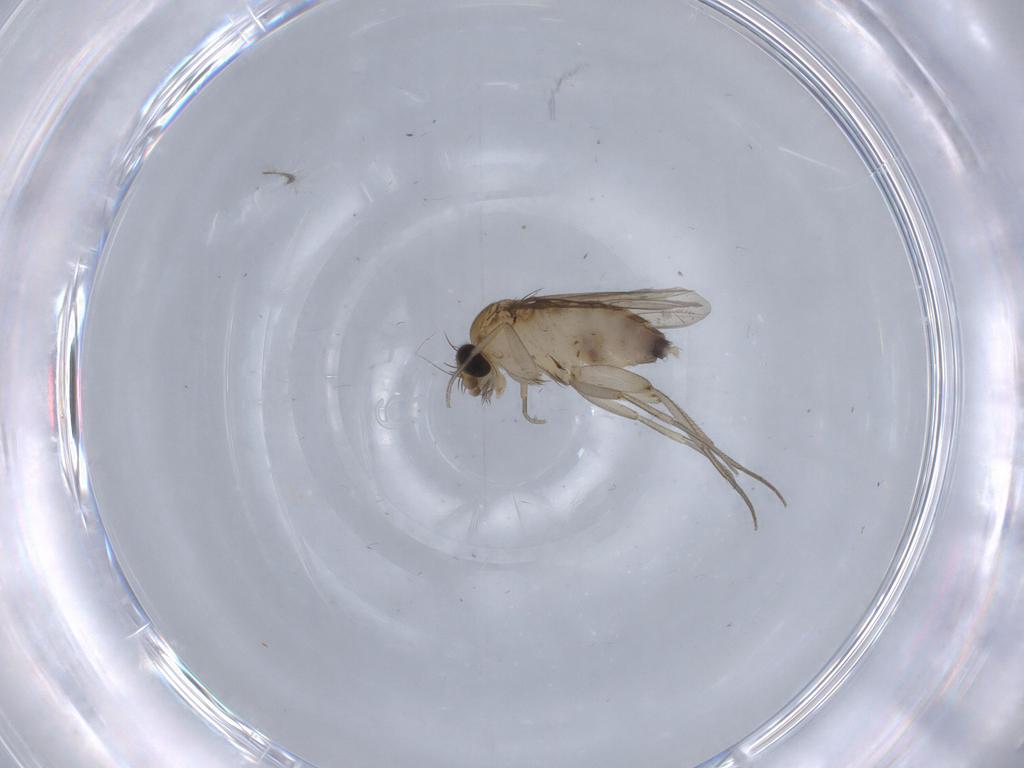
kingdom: Animalia
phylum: Arthropoda
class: Insecta
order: Diptera
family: Phoridae
